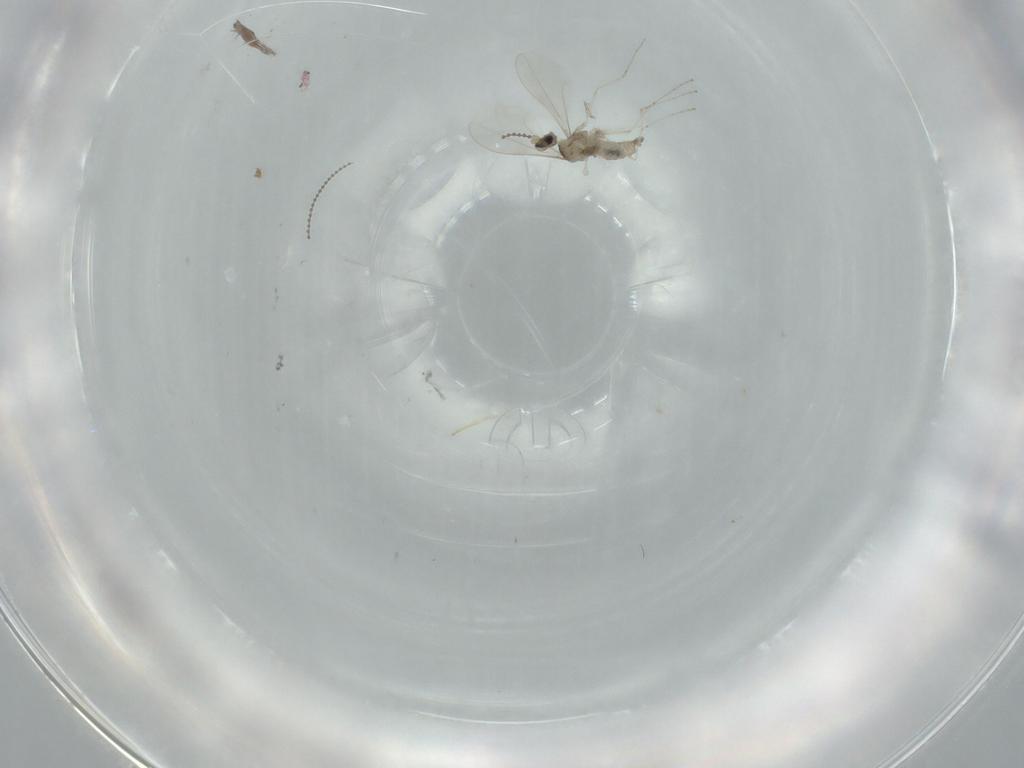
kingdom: Animalia
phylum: Arthropoda
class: Insecta
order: Diptera
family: Cecidomyiidae
